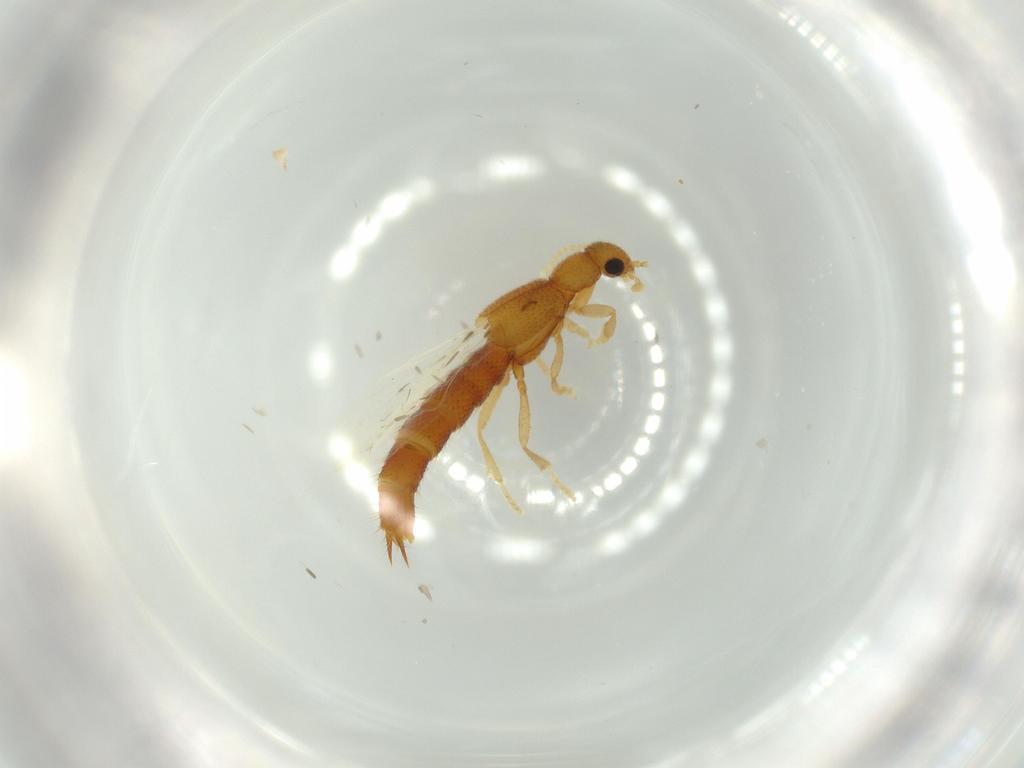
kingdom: Animalia
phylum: Arthropoda
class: Insecta
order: Coleoptera
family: Staphylinidae
